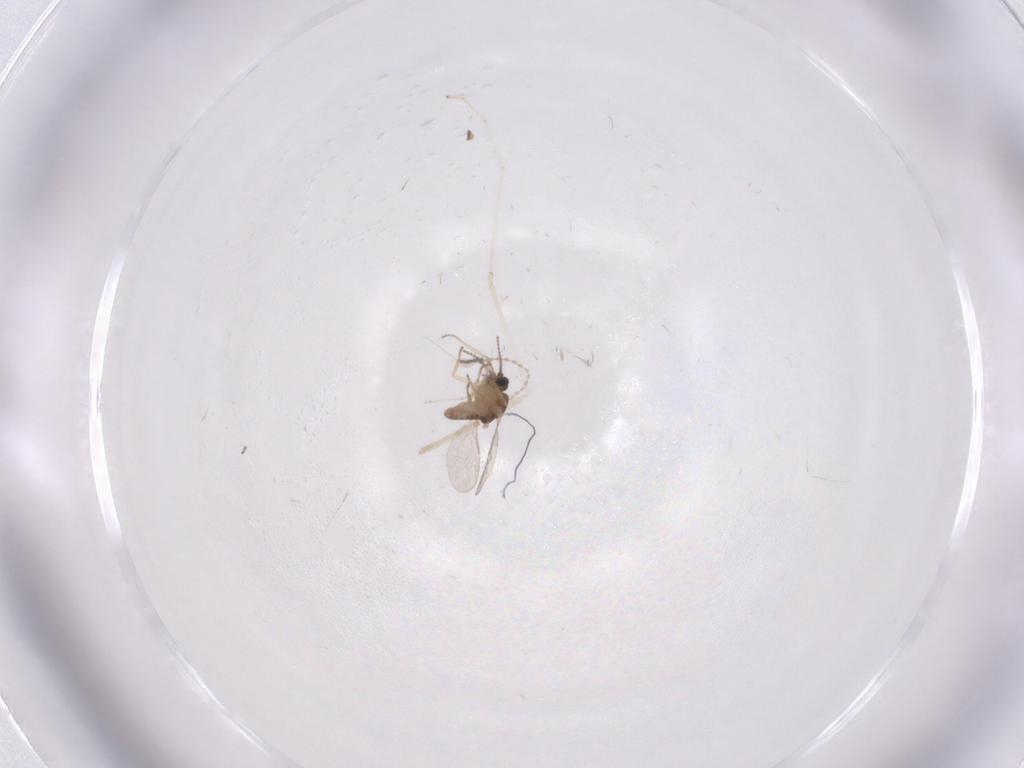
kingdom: Animalia
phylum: Arthropoda
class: Insecta
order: Diptera
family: Cecidomyiidae
